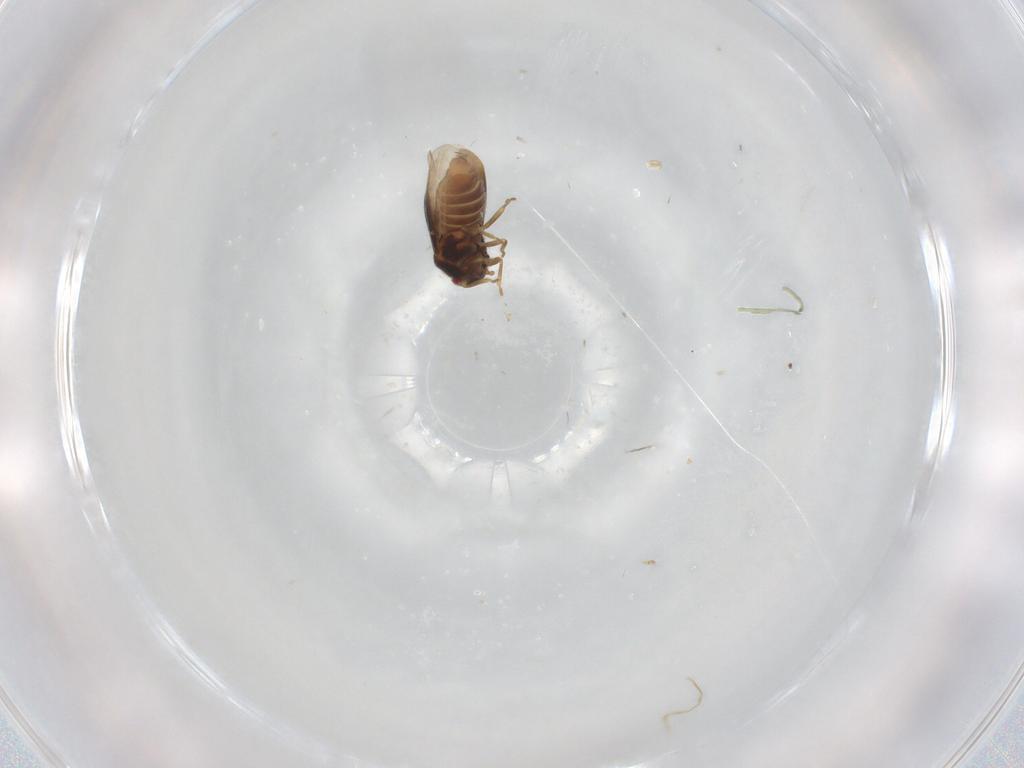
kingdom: Animalia
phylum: Arthropoda
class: Insecta
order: Hemiptera
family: Schizopteridae
